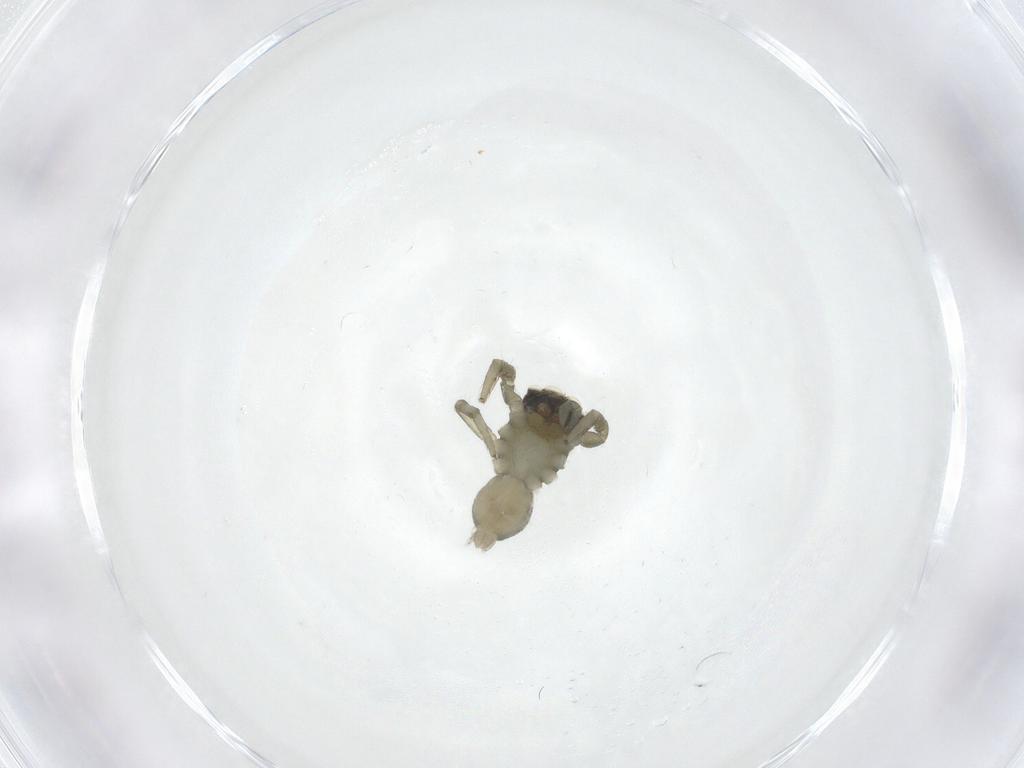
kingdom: Animalia
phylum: Arthropoda
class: Arachnida
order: Araneae
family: Salticidae
